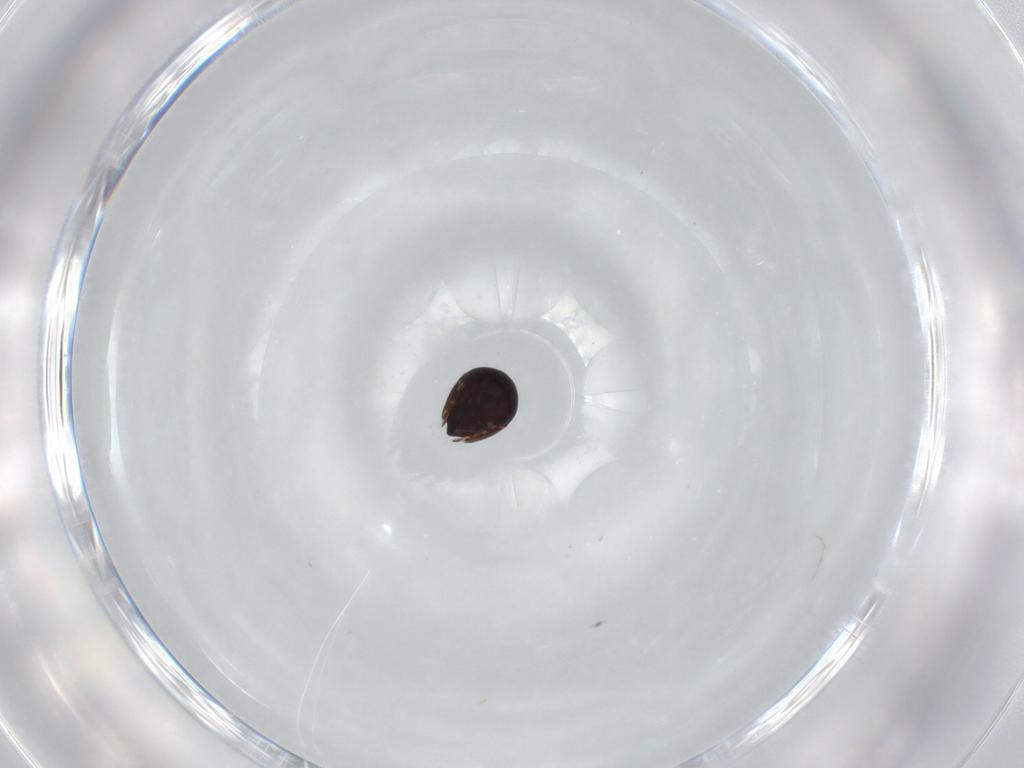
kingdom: Animalia
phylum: Arthropoda
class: Arachnida
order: Sarcoptiformes
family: Ceratozetidae
